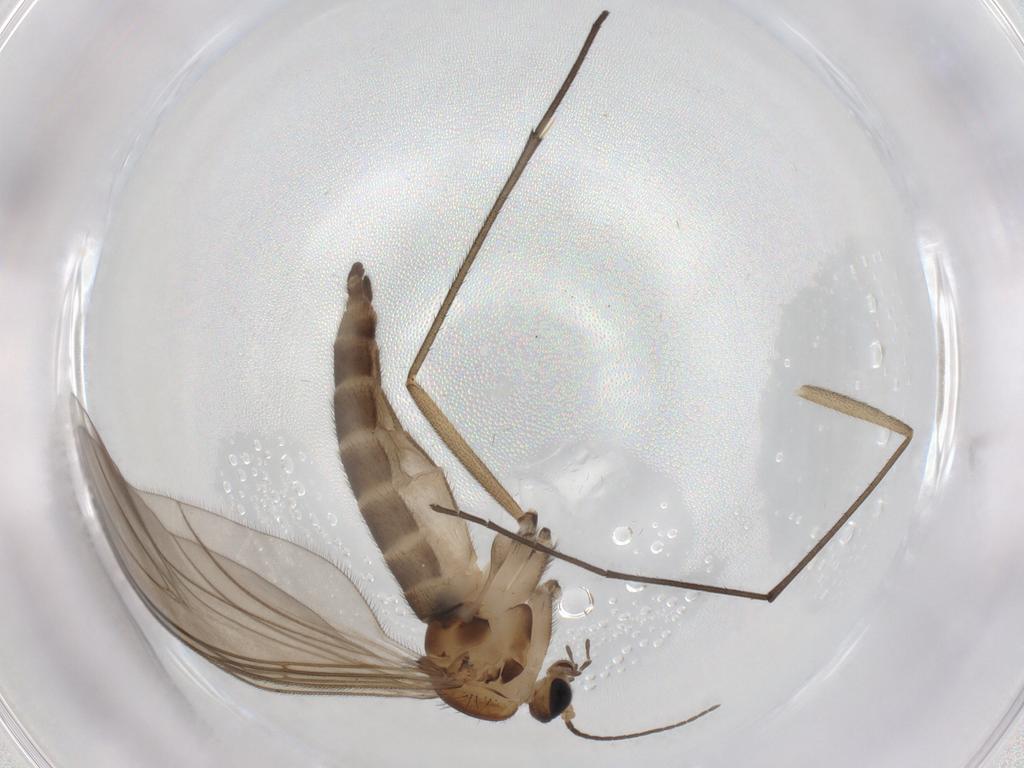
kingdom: Animalia
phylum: Arthropoda
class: Insecta
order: Diptera
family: Sciaridae
